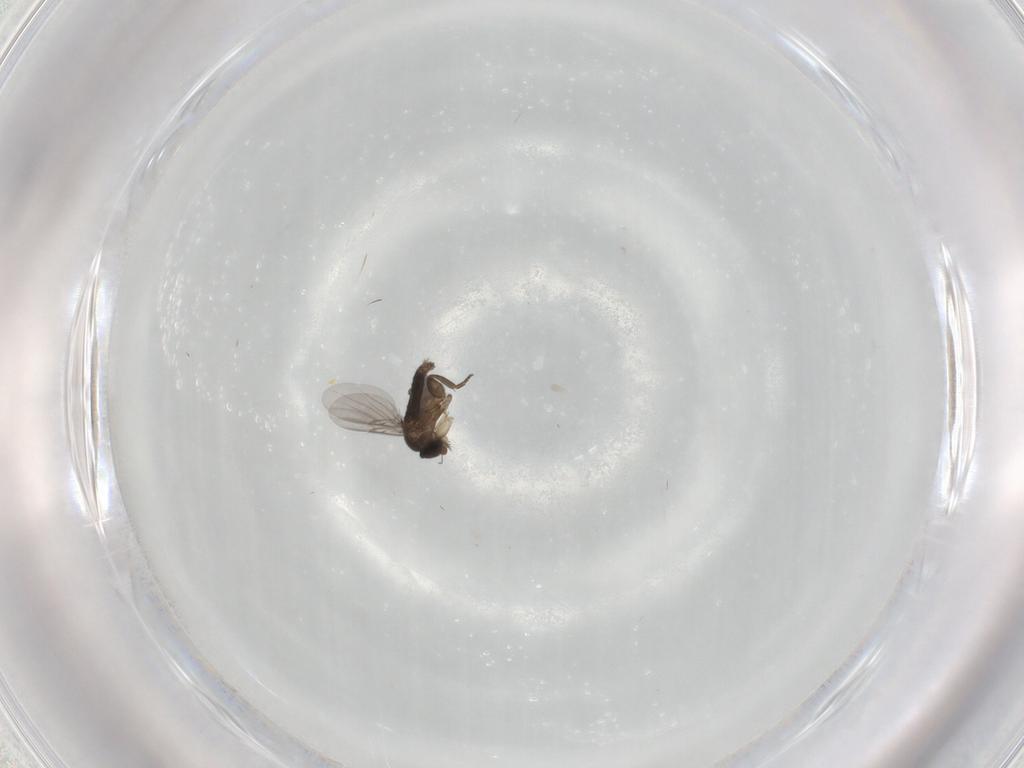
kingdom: Animalia
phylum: Arthropoda
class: Insecta
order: Diptera
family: Phoridae
